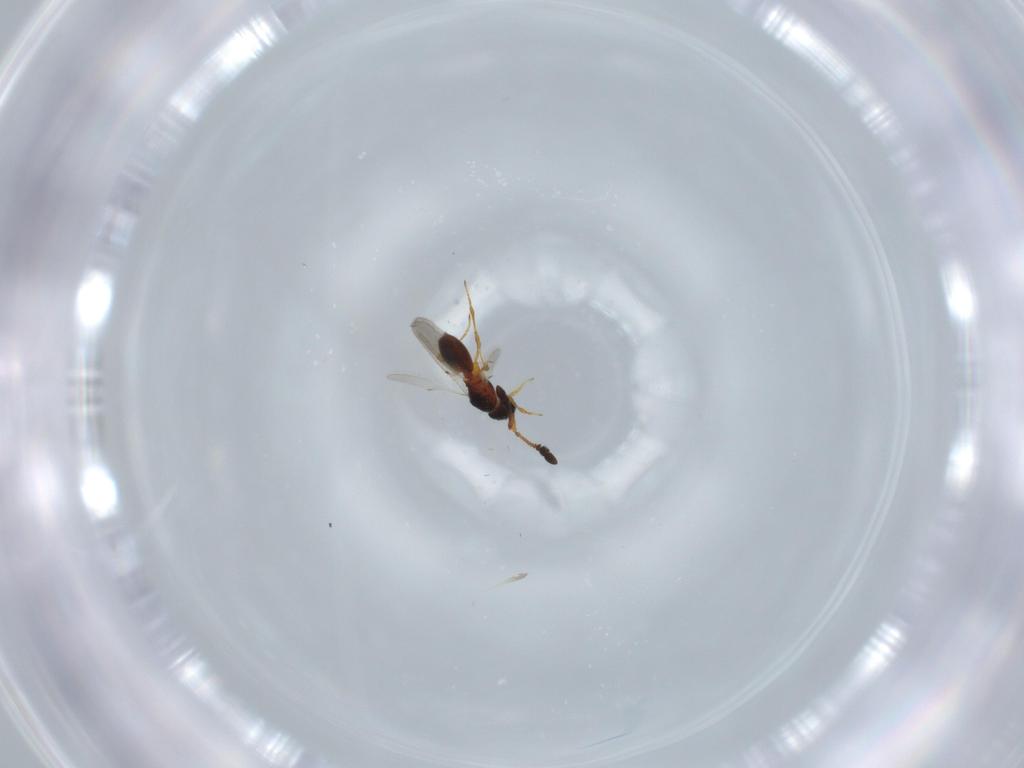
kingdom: Animalia
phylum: Arthropoda
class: Insecta
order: Hymenoptera
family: Diapriidae
